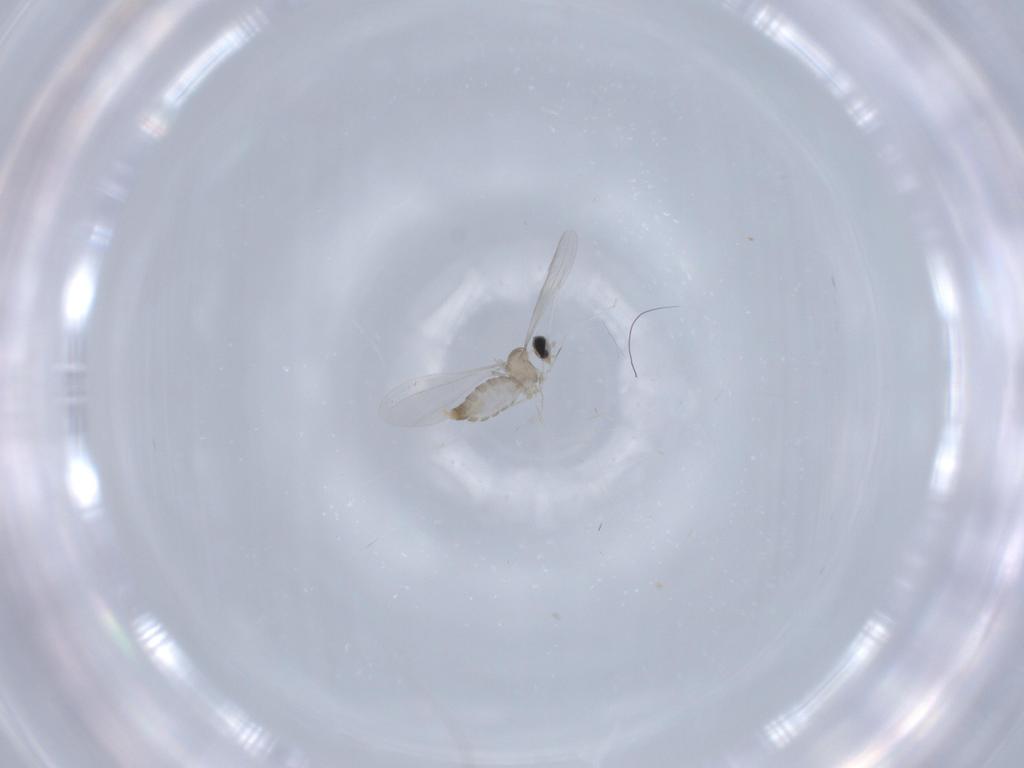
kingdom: Animalia
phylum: Arthropoda
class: Insecta
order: Diptera
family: Cecidomyiidae
